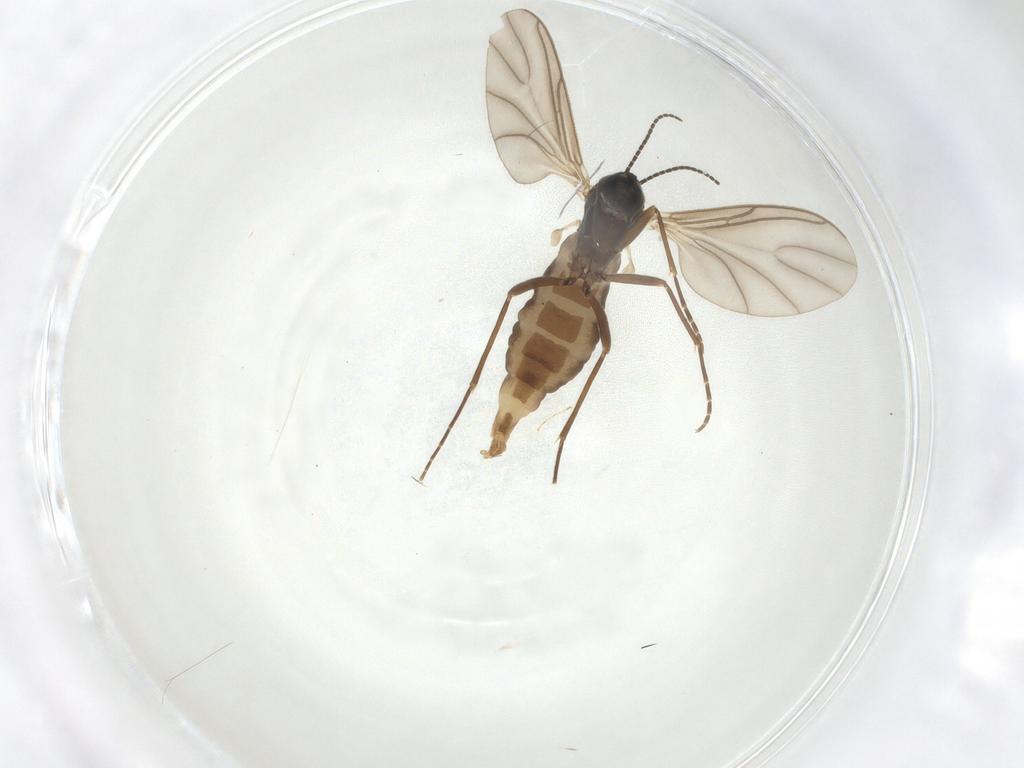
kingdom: Animalia
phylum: Arthropoda
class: Insecta
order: Diptera
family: Sciaridae
